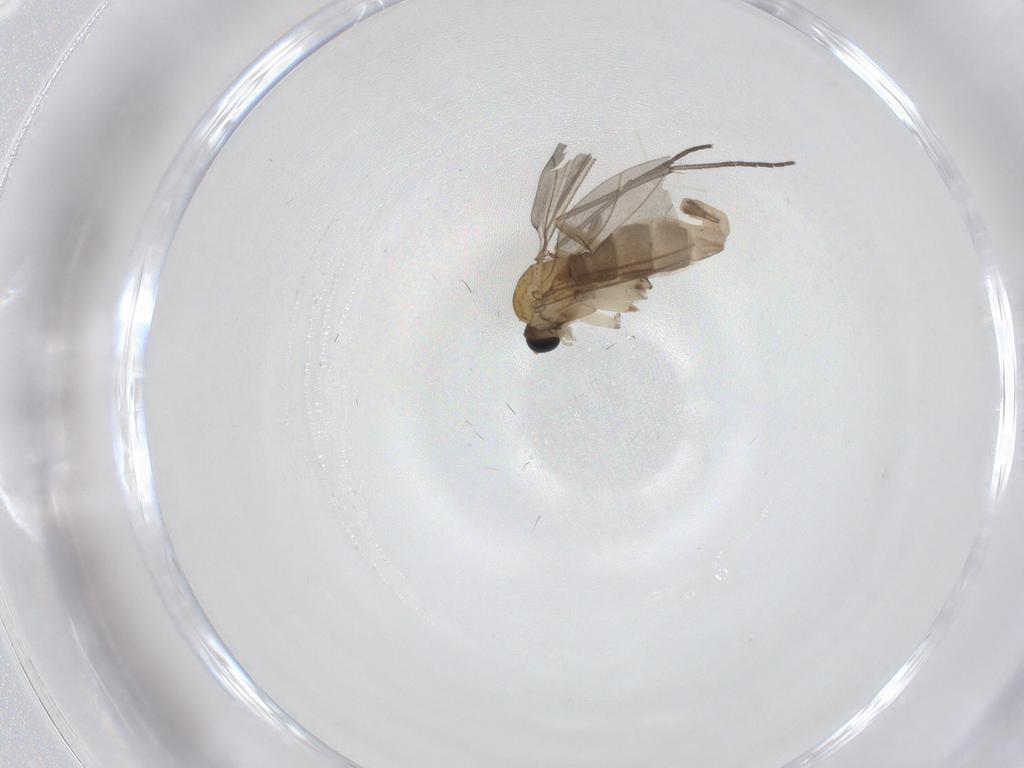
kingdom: Animalia
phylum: Arthropoda
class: Insecta
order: Diptera
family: Sciaridae
